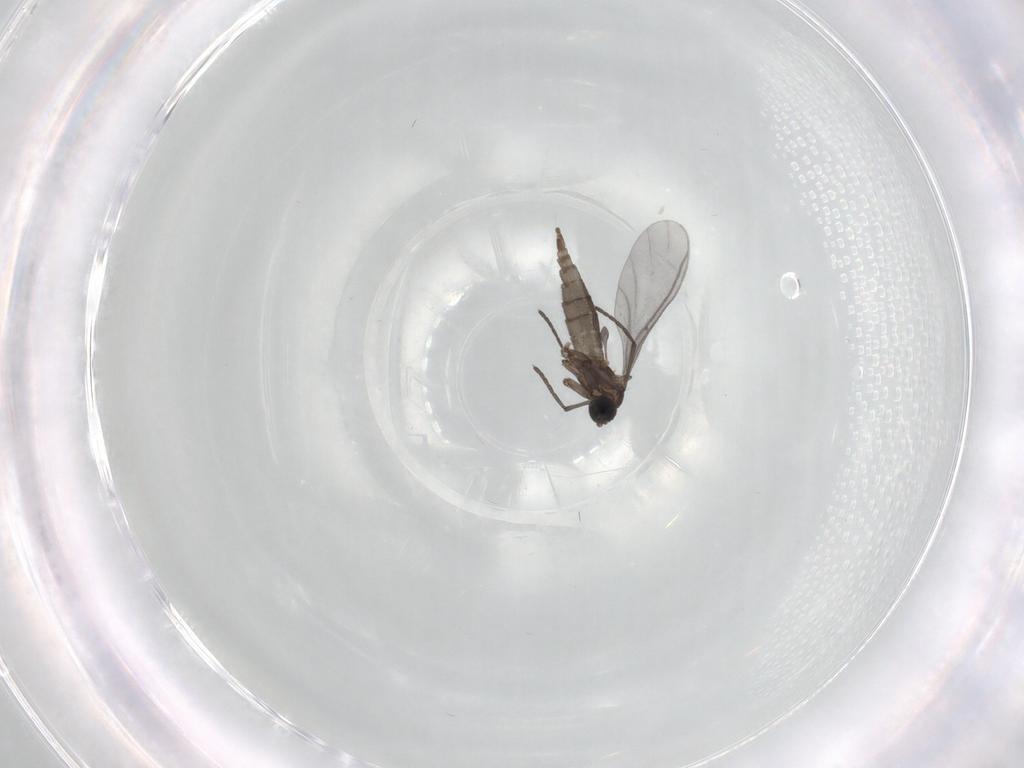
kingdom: Animalia
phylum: Arthropoda
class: Insecta
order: Diptera
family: Sciaridae
